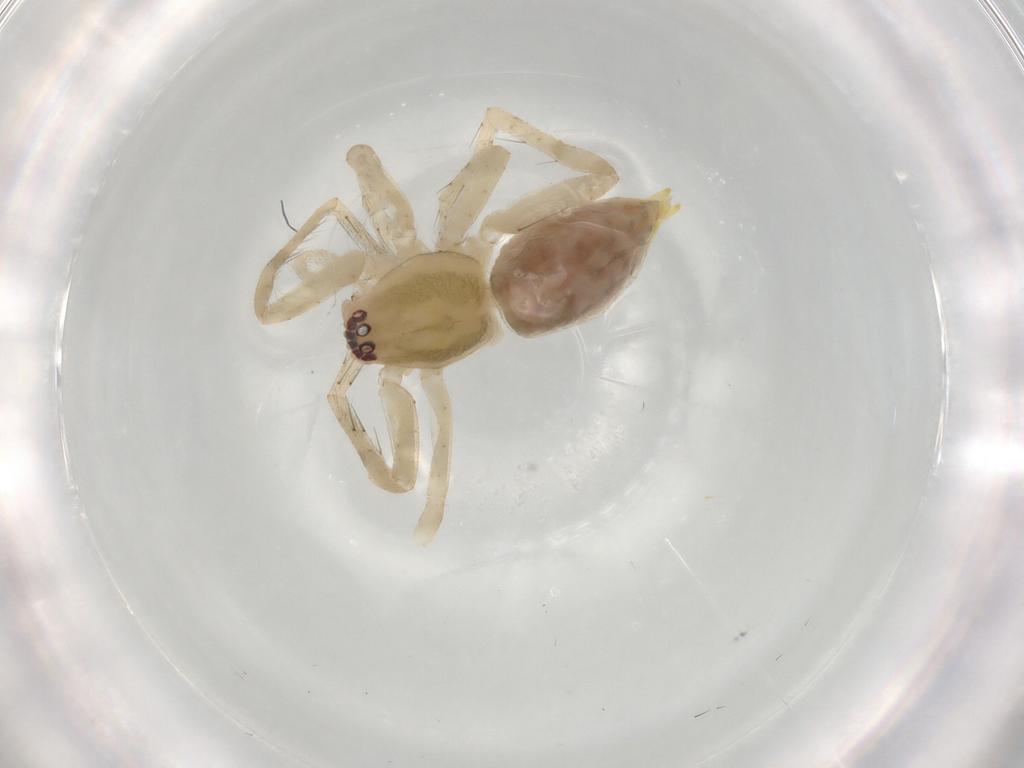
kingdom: Animalia
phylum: Arthropoda
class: Arachnida
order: Araneae
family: Anyphaenidae
